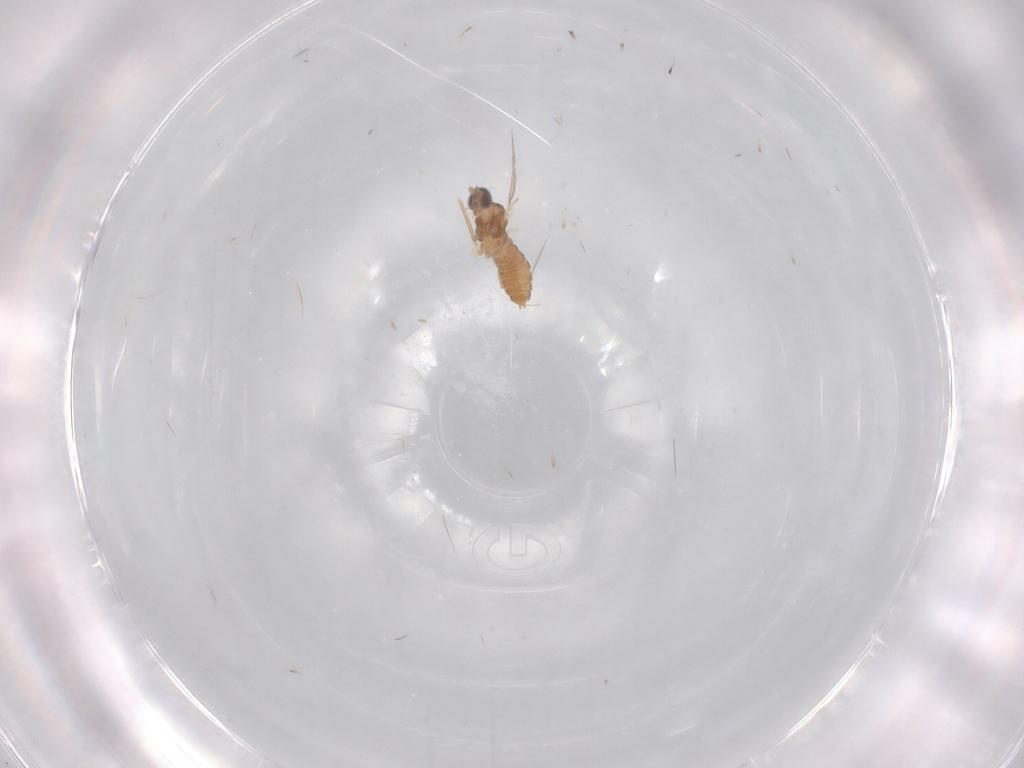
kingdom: Animalia
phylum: Arthropoda
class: Insecta
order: Diptera
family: Cecidomyiidae
